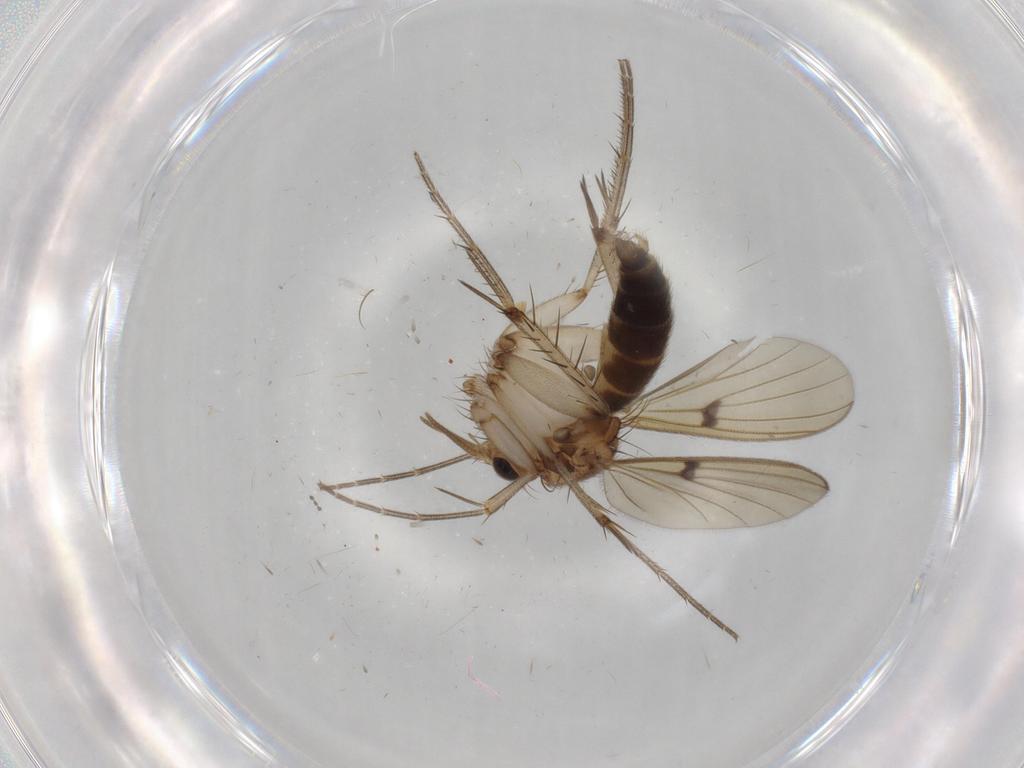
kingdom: Animalia
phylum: Arthropoda
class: Insecta
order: Diptera
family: Mycetophilidae
